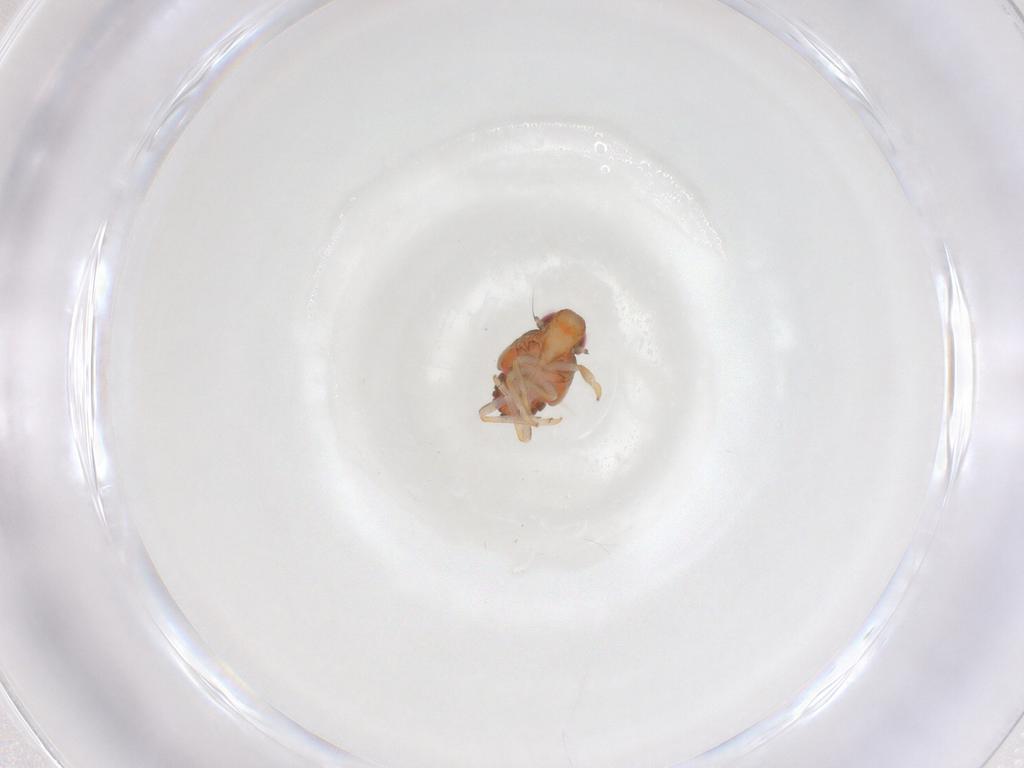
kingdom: Animalia
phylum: Arthropoda
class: Insecta
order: Hemiptera
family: Issidae
